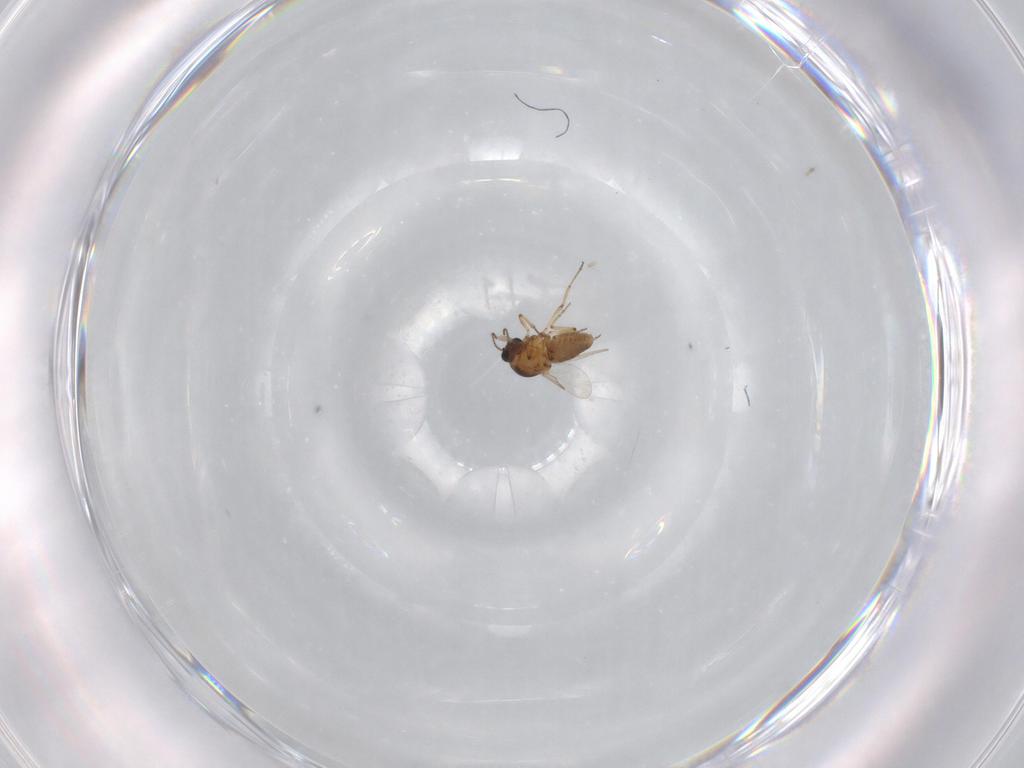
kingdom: Animalia
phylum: Arthropoda
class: Insecta
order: Diptera
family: Ceratopogonidae
